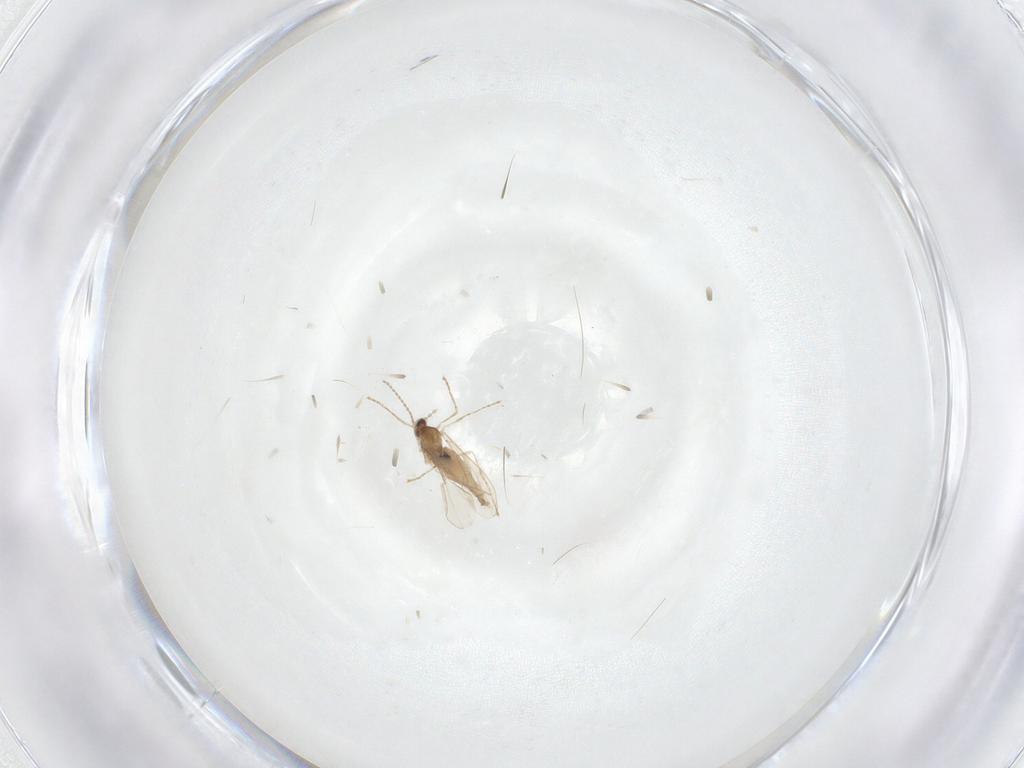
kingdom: Animalia
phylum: Arthropoda
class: Insecta
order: Diptera
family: Cecidomyiidae
